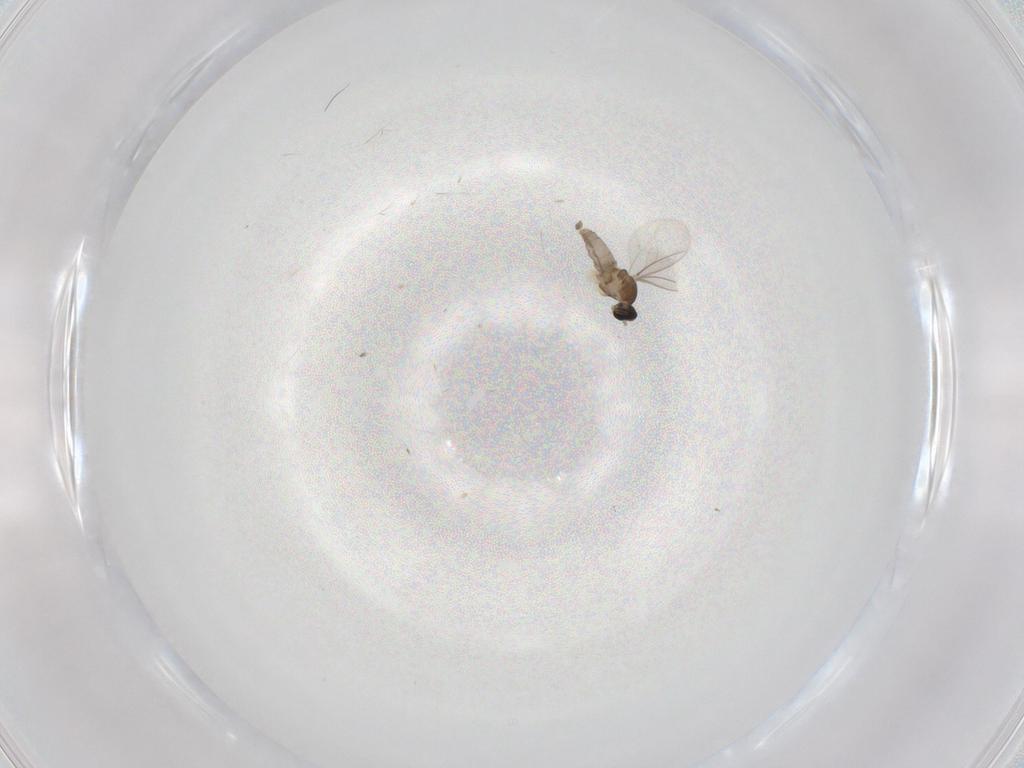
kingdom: Animalia
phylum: Arthropoda
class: Insecta
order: Diptera
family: Cecidomyiidae
